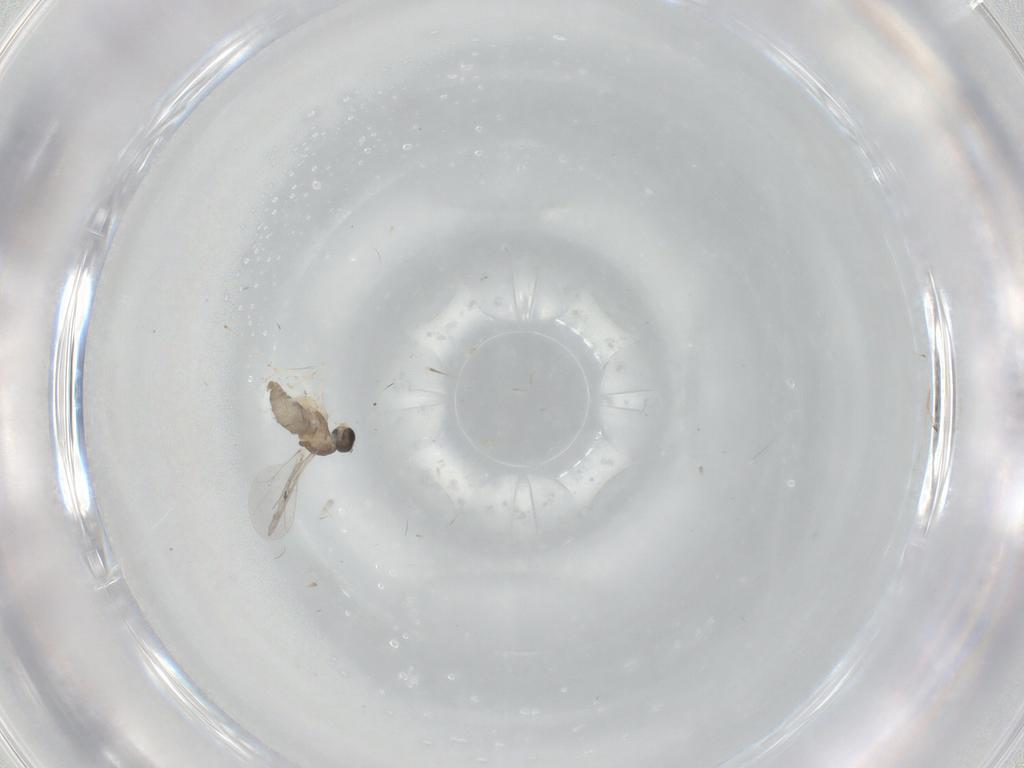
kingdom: Animalia
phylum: Arthropoda
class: Insecta
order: Diptera
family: Cecidomyiidae
